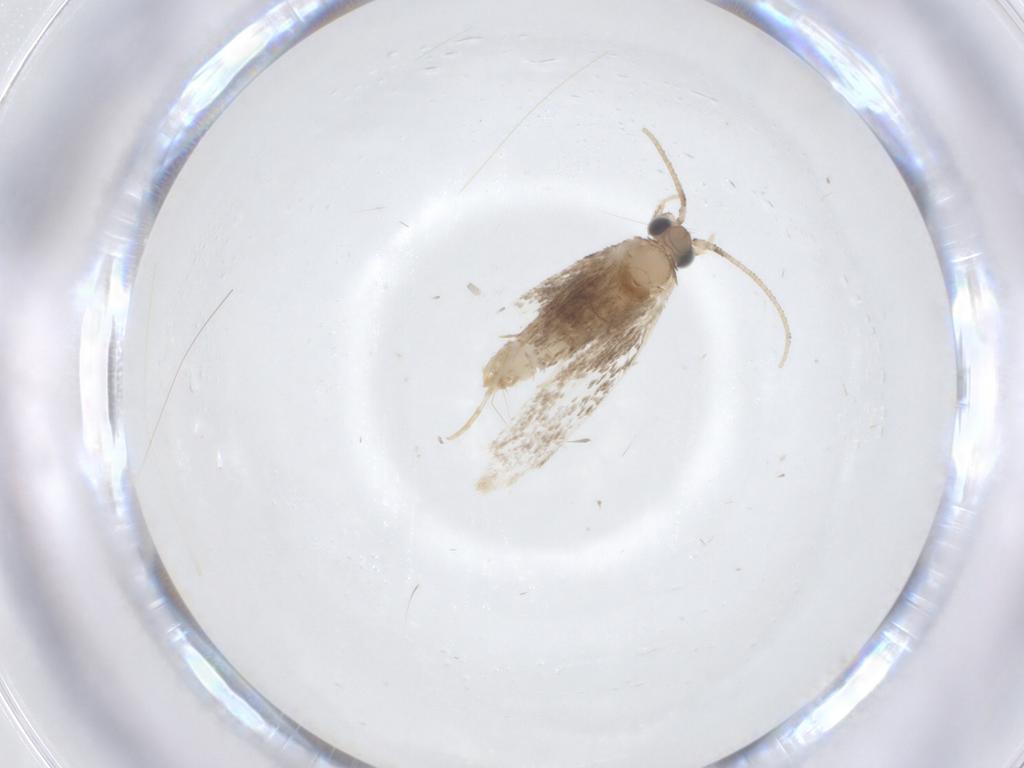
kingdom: Animalia
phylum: Arthropoda
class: Insecta
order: Lepidoptera
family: Dryadaulidae
